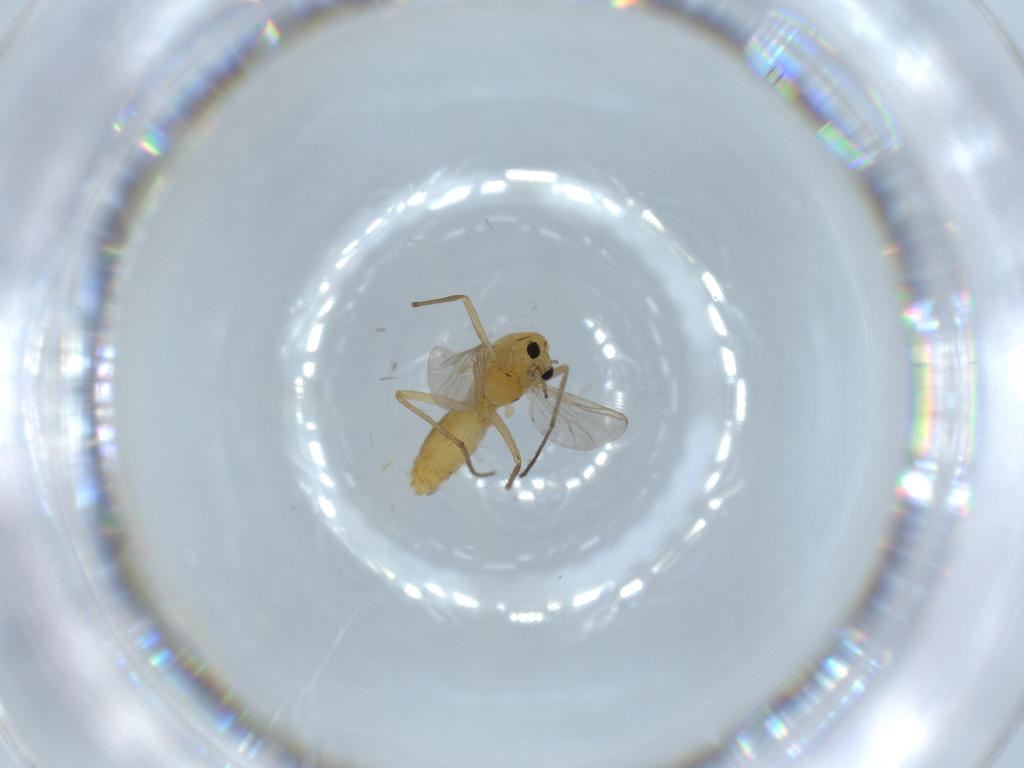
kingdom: Animalia
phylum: Arthropoda
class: Insecta
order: Diptera
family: Chironomidae
